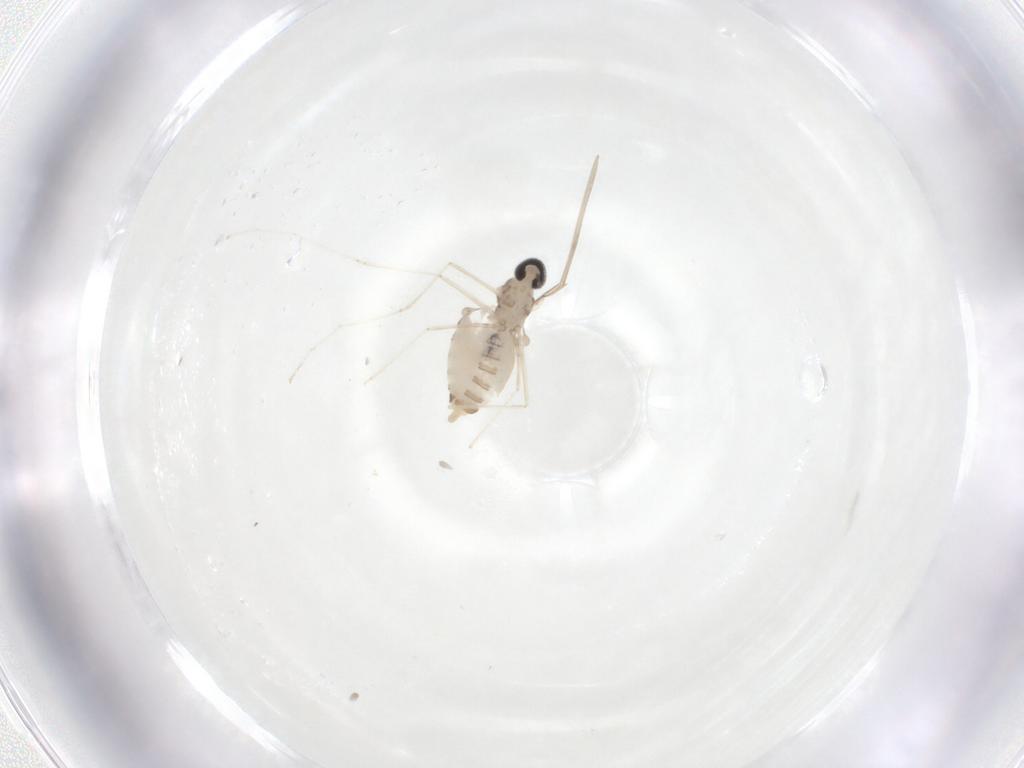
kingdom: Animalia
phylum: Arthropoda
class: Insecta
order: Diptera
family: Cecidomyiidae
